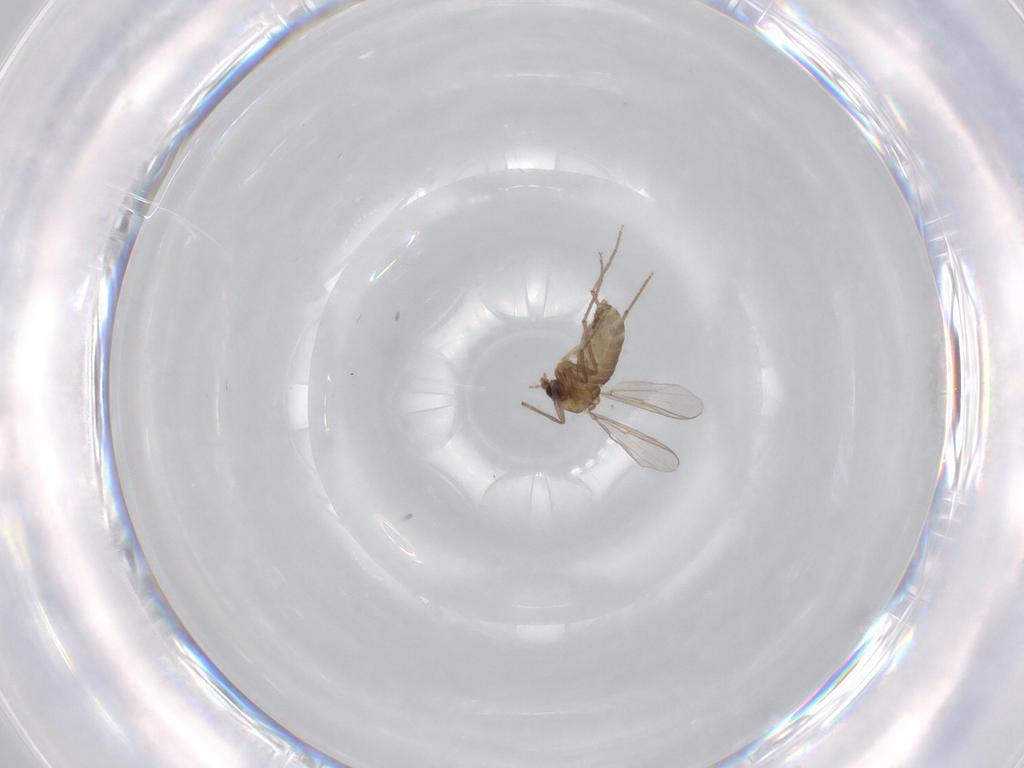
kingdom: Animalia
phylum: Arthropoda
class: Insecta
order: Diptera
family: Chironomidae
